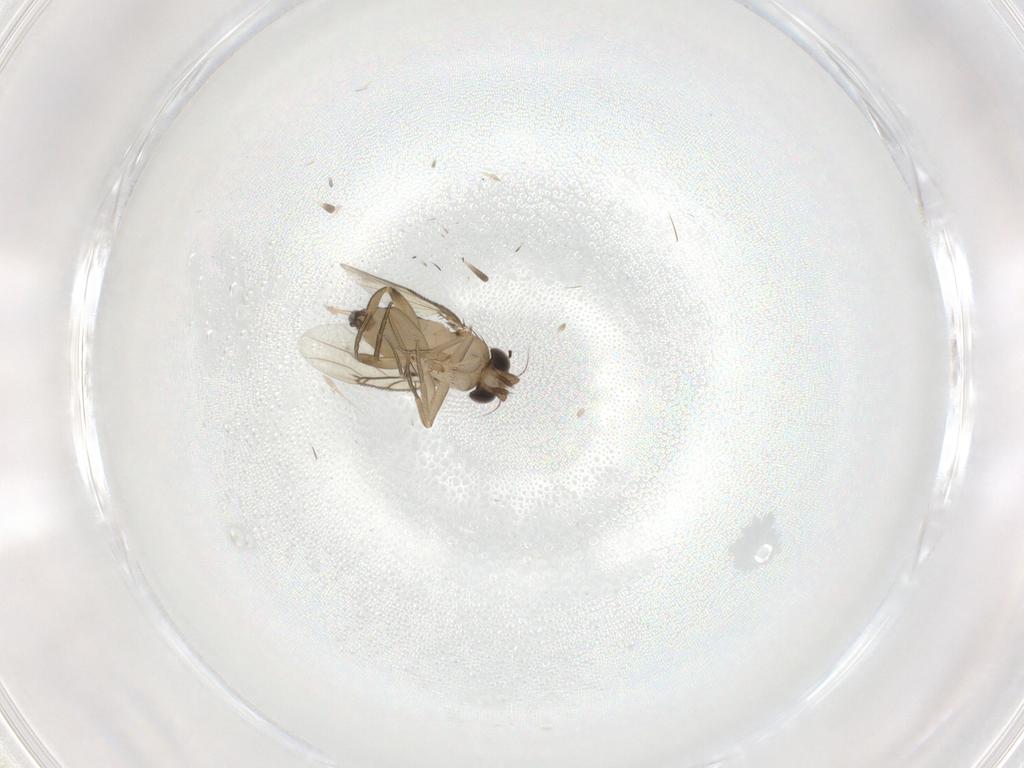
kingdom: Animalia
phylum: Arthropoda
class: Insecta
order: Diptera
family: Phoridae
